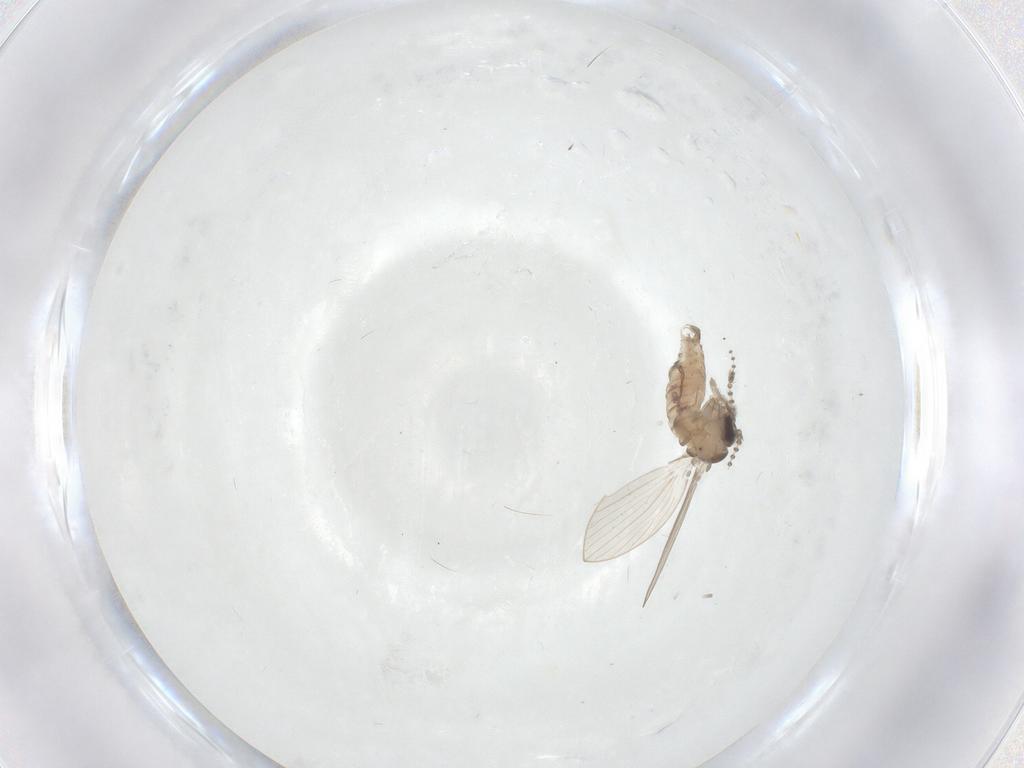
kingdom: Animalia
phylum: Arthropoda
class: Insecta
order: Diptera
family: Psychodidae
